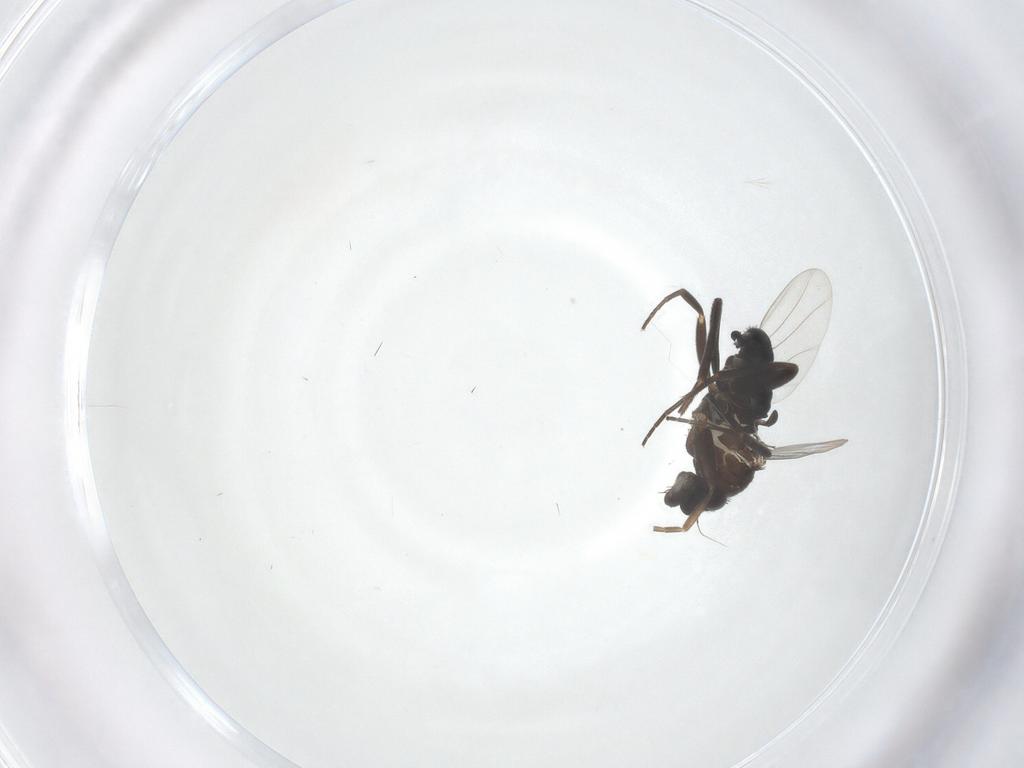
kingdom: Animalia
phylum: Arthropoda
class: Insecta
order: Diptera
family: Phoridae
